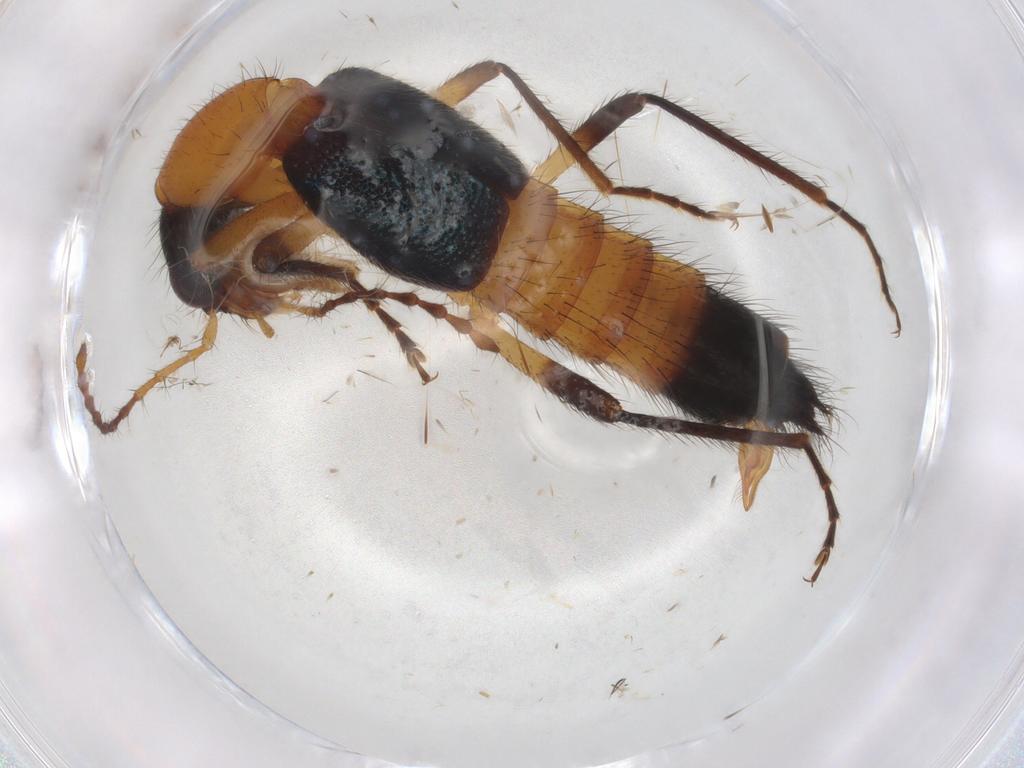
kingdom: Animalia
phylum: Arthropoda
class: Insecta
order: Coleoptera
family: Staphylinidae
